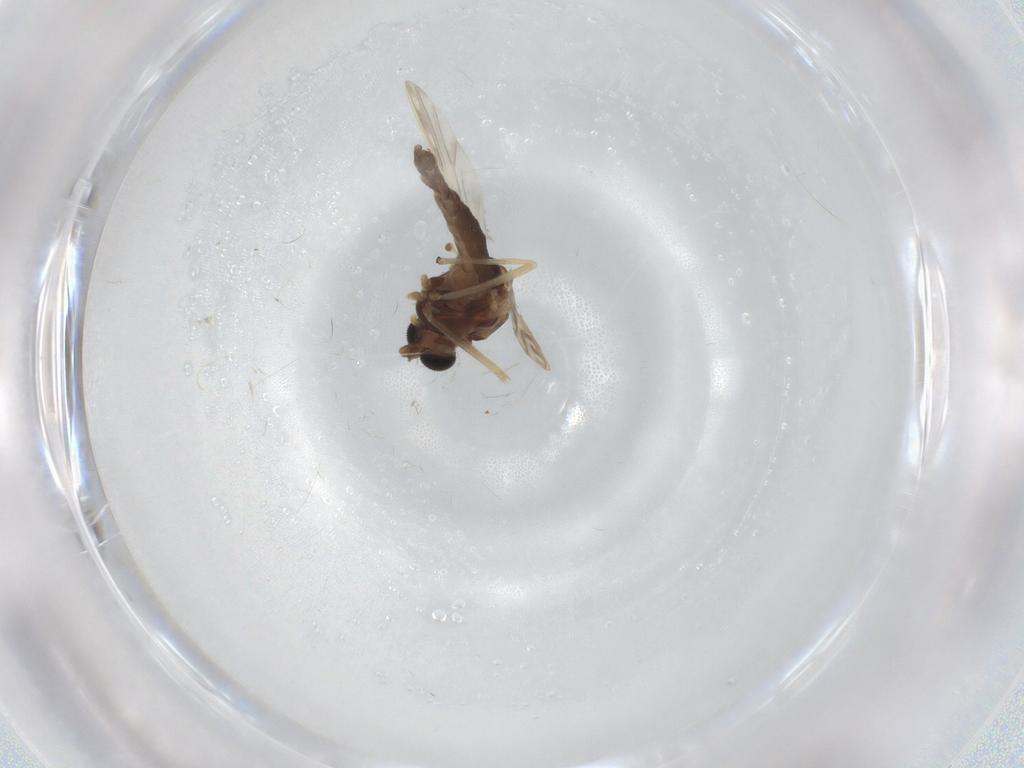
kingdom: Animalia
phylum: Arthropoda
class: Insecta
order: Diptera
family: Chironomidae
